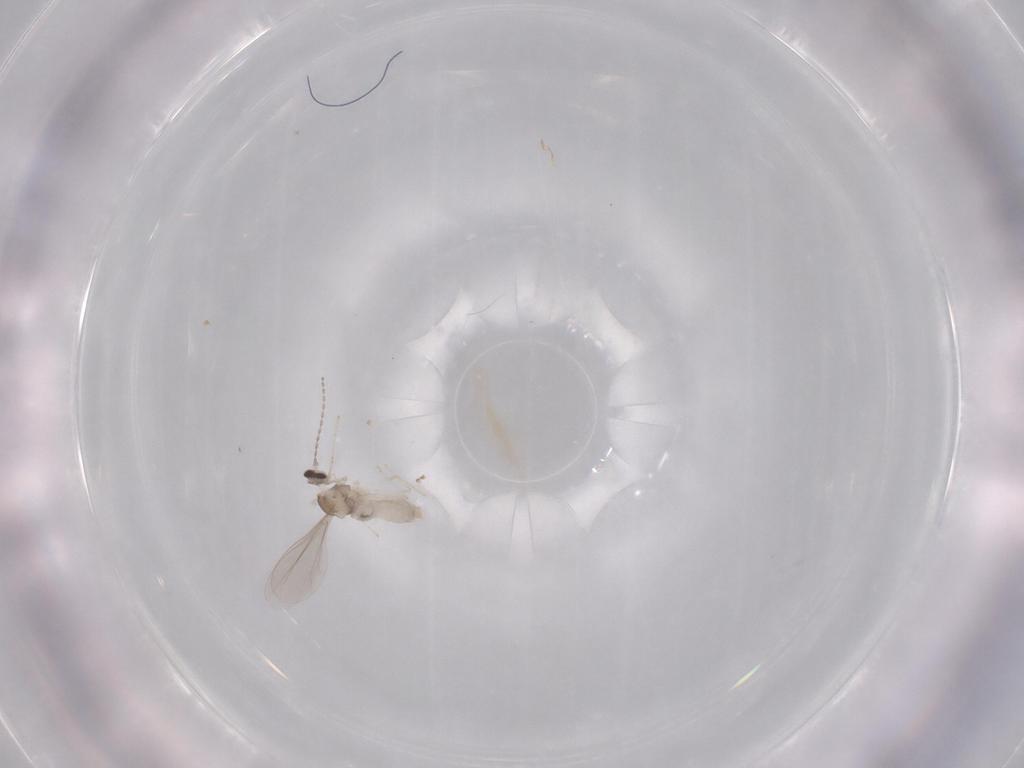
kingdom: Animalia
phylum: Arthropoda
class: Insecta
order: Diptera
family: Cecidomyiidae
